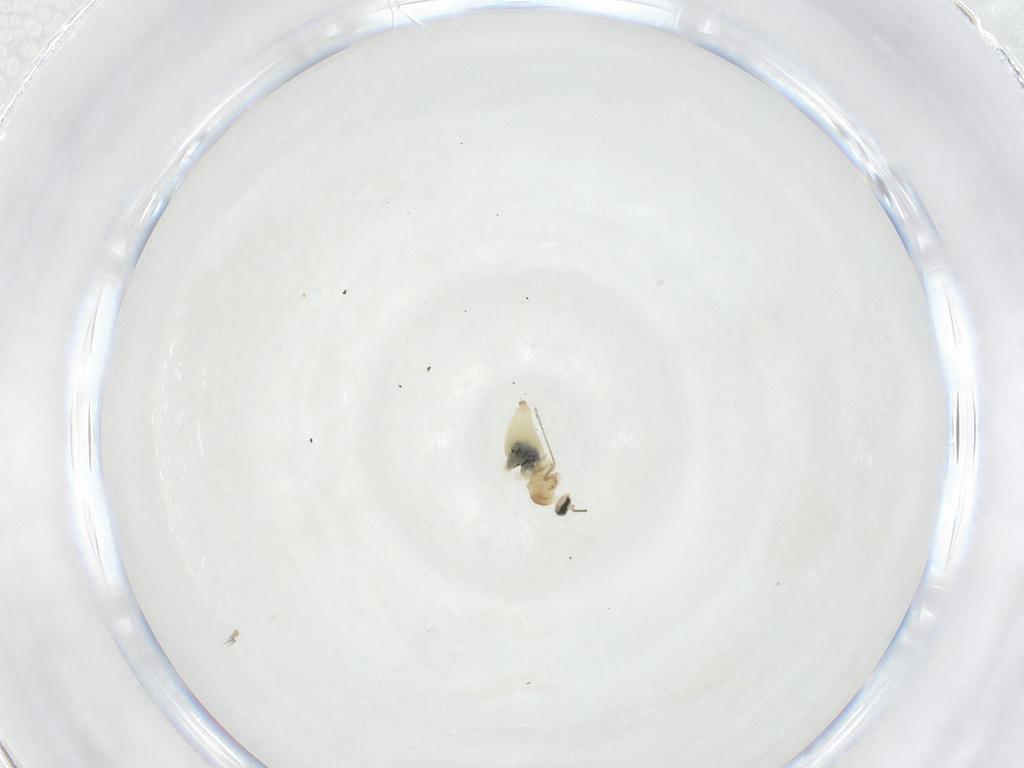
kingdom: Animalia
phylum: Arthropoda
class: Insecta
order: Diptera
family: Cecidomyiidae
